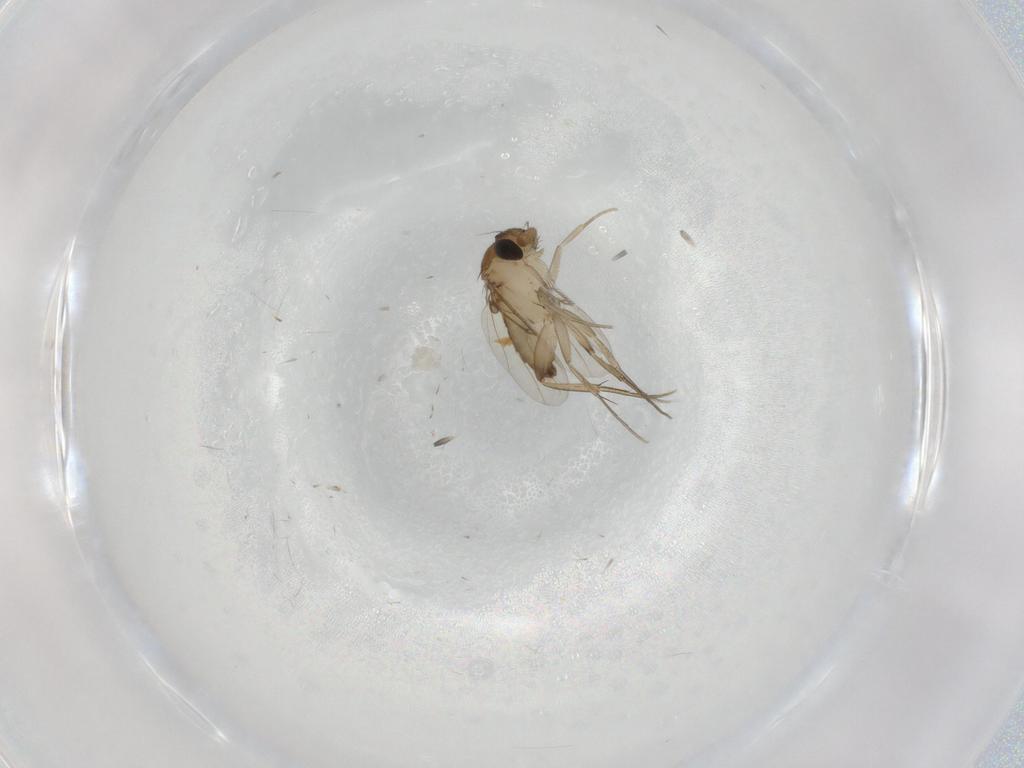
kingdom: Animalia
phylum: Arthropoda
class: Insecta
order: Diptera
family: Phoridae
